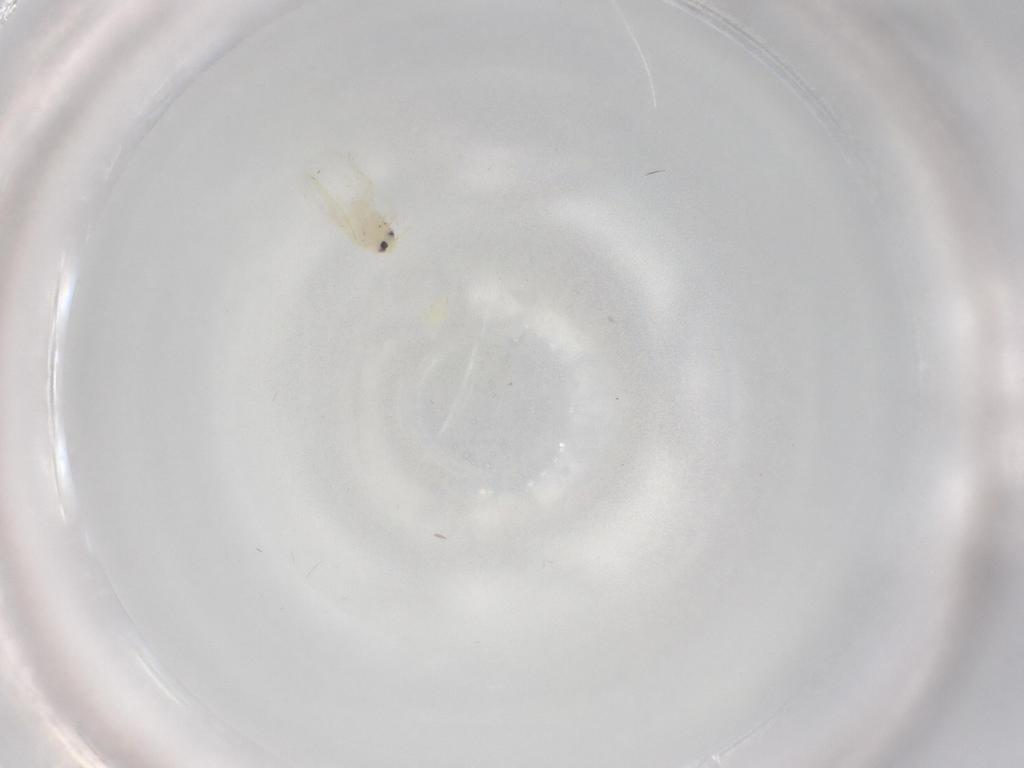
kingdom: Animalia
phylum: Arthropoda
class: Insecta
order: Hemiptera
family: Aleyrodidae
